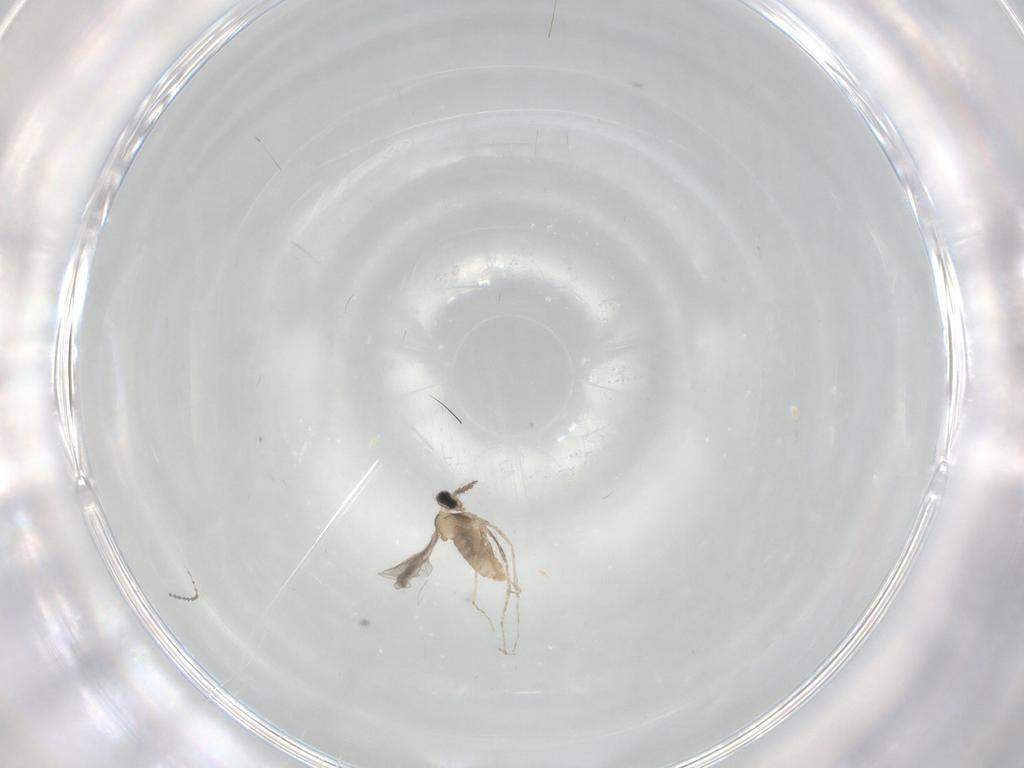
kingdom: Animalia
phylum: Arthropoda
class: Insecta
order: Diptera
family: Cecidomyiidae
